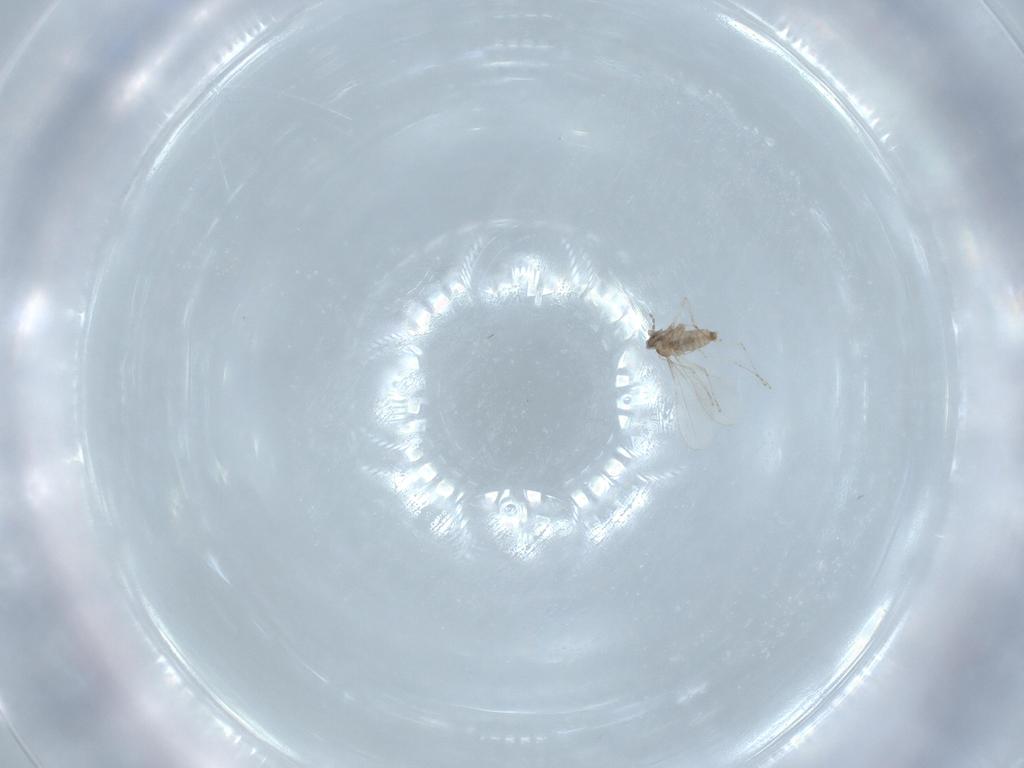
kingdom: Animalia
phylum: Arthropoda
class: Insecta
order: Diptera
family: Cecidomyiidae
